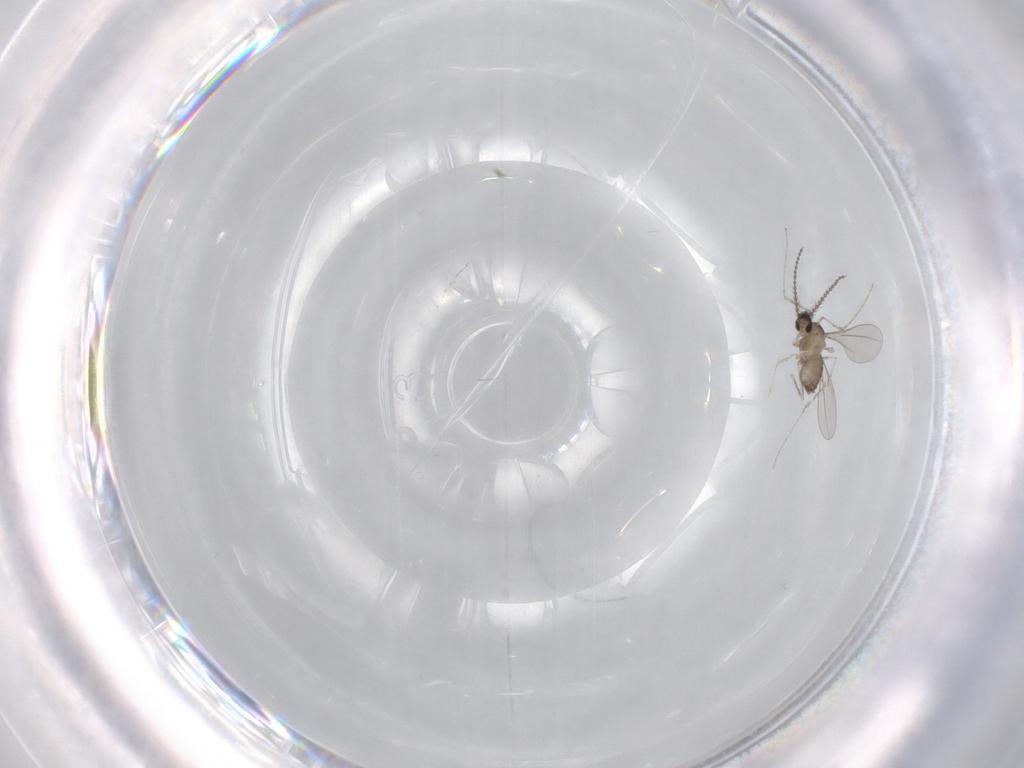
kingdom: Animalia
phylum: Arthropoda
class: Insecta
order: Diptera
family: Cecidomyiidae
